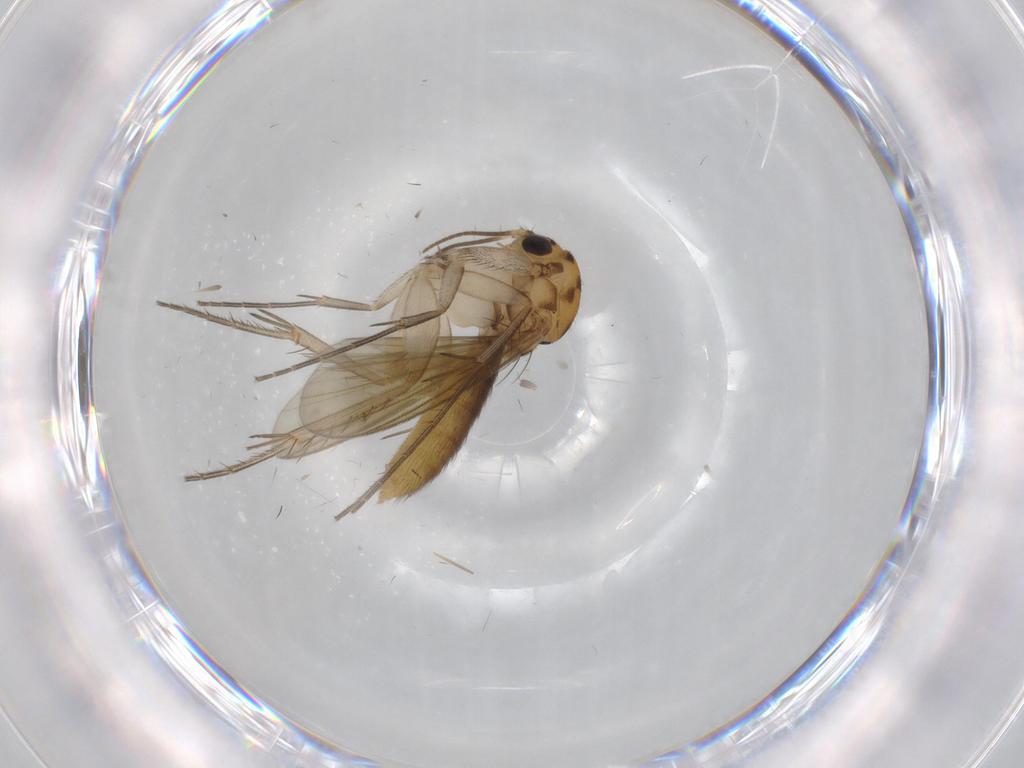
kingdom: Animalia
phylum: Arthropoda
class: Insecta
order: Diptera
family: Mycetophilidae
